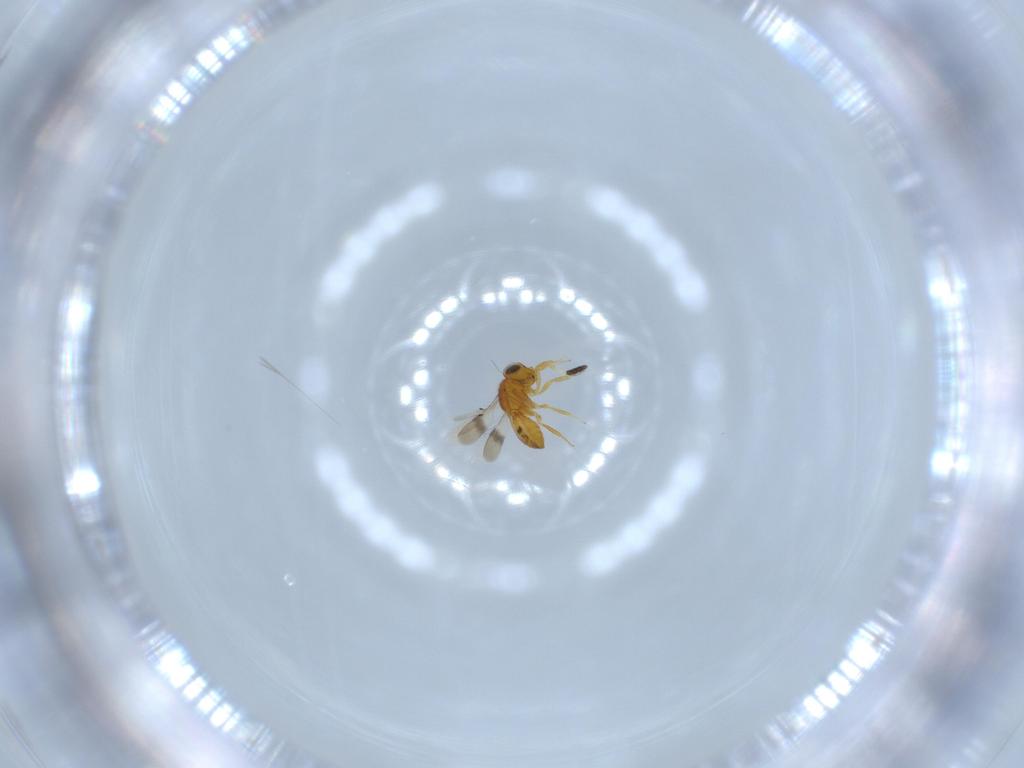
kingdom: Animalia
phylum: Arthropoda
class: Insecta
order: Hymenoptera
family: Scelionidae
